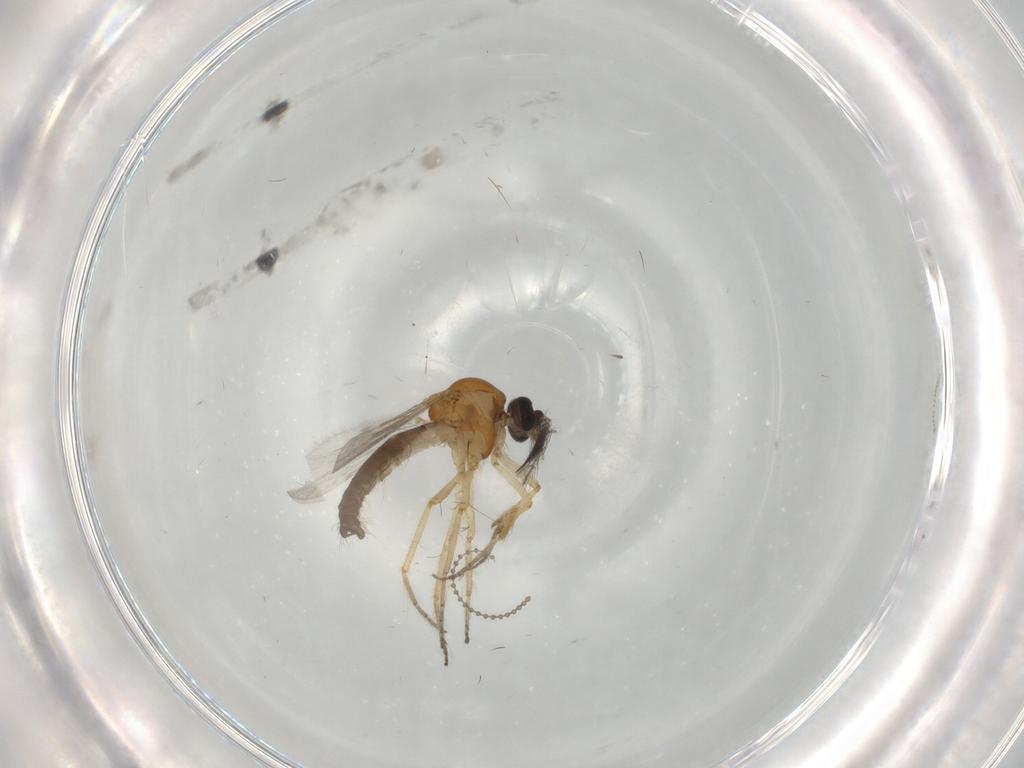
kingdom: Animalia
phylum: Arthropoda
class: Insecta
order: Diptera
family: Ceratopogonidae
